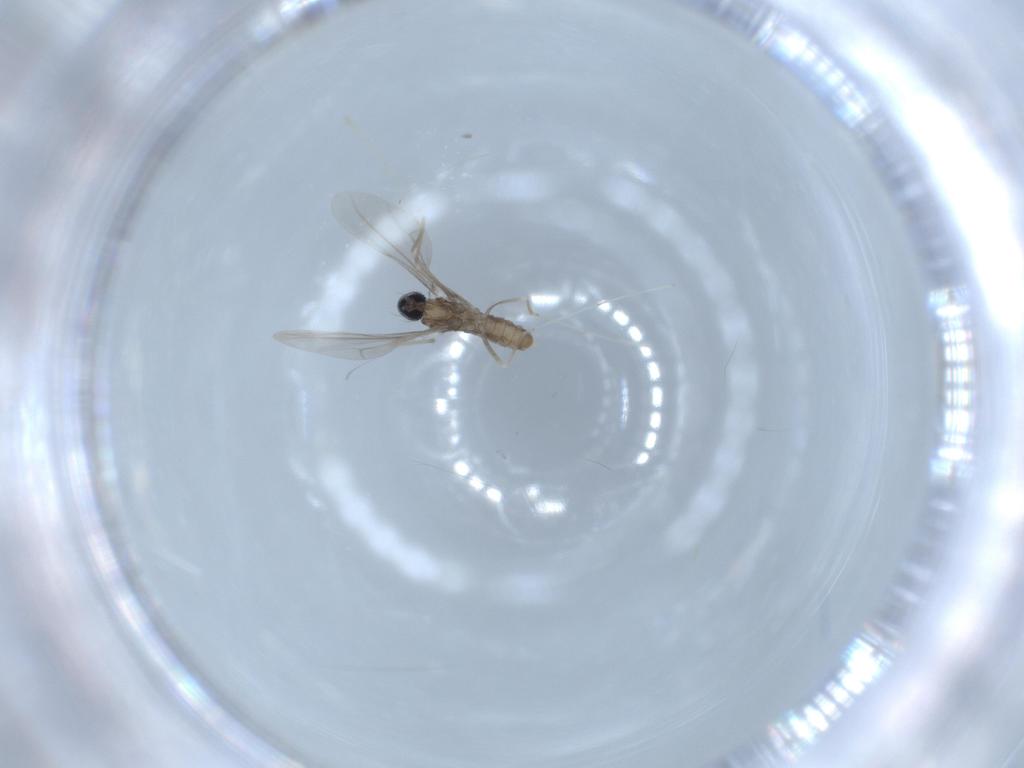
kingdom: Animalia
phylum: Arthropoda
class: Insecta
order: Diptera
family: Cecidomyiidae
